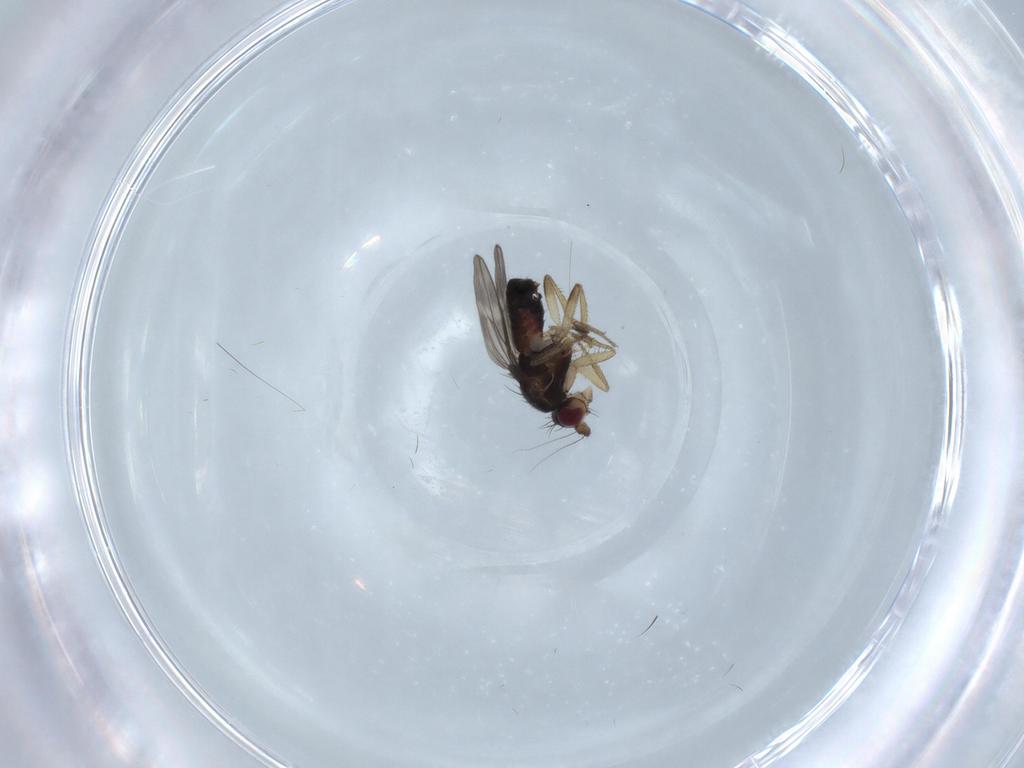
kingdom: Animalia
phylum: Arthropoda
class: Insecta
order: Diptera
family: Sphaeroceridae
